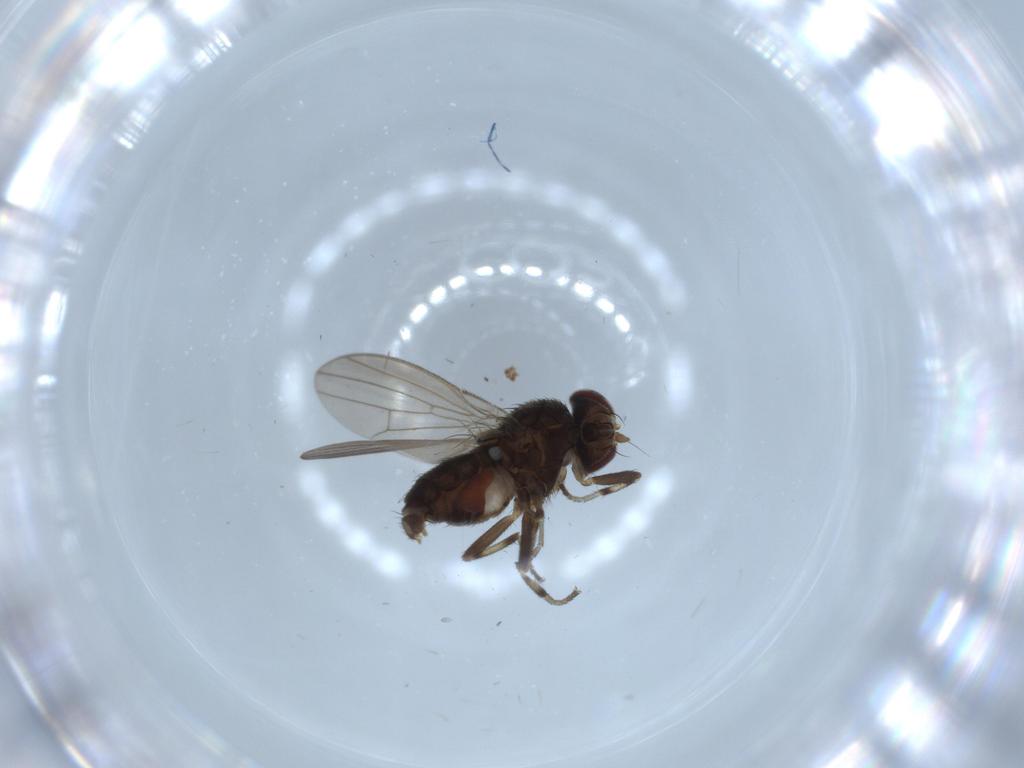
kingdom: Animalia
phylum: Arthropoda
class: Insecta
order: Diptera
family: Heleomyzidae
